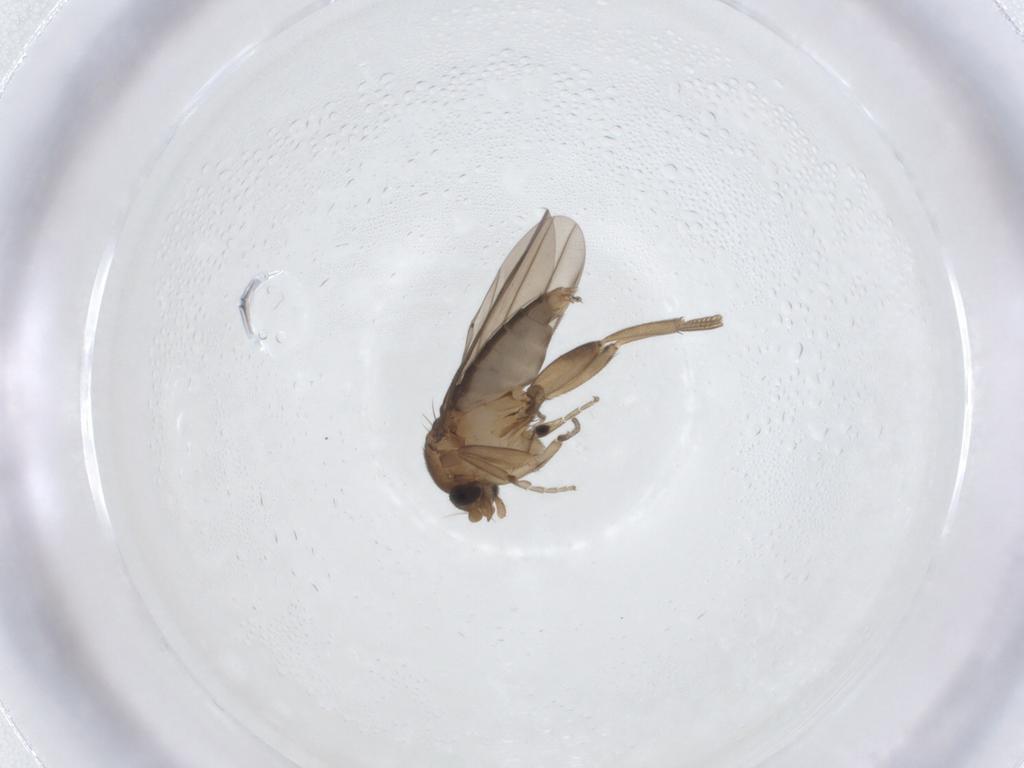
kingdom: Animalia
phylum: Arthropoda
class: Insecta
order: Diptera
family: Phoridae
